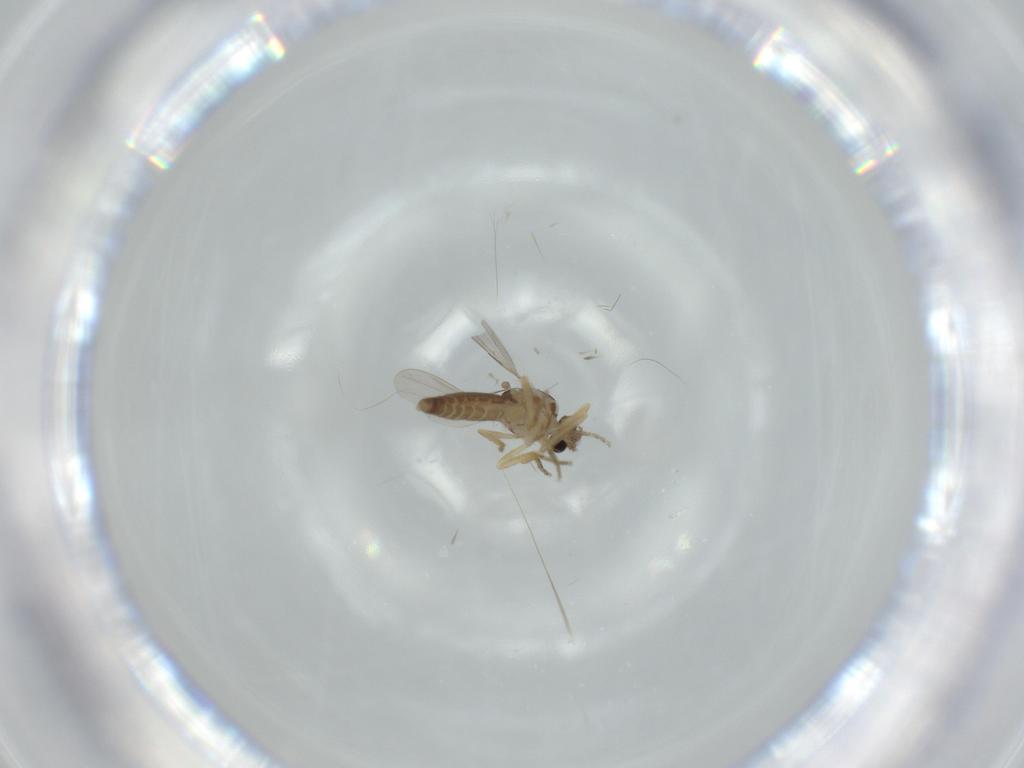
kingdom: Animalia
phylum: Arthropoda
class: Insecta
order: Diptera
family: Ceratopogonidae
